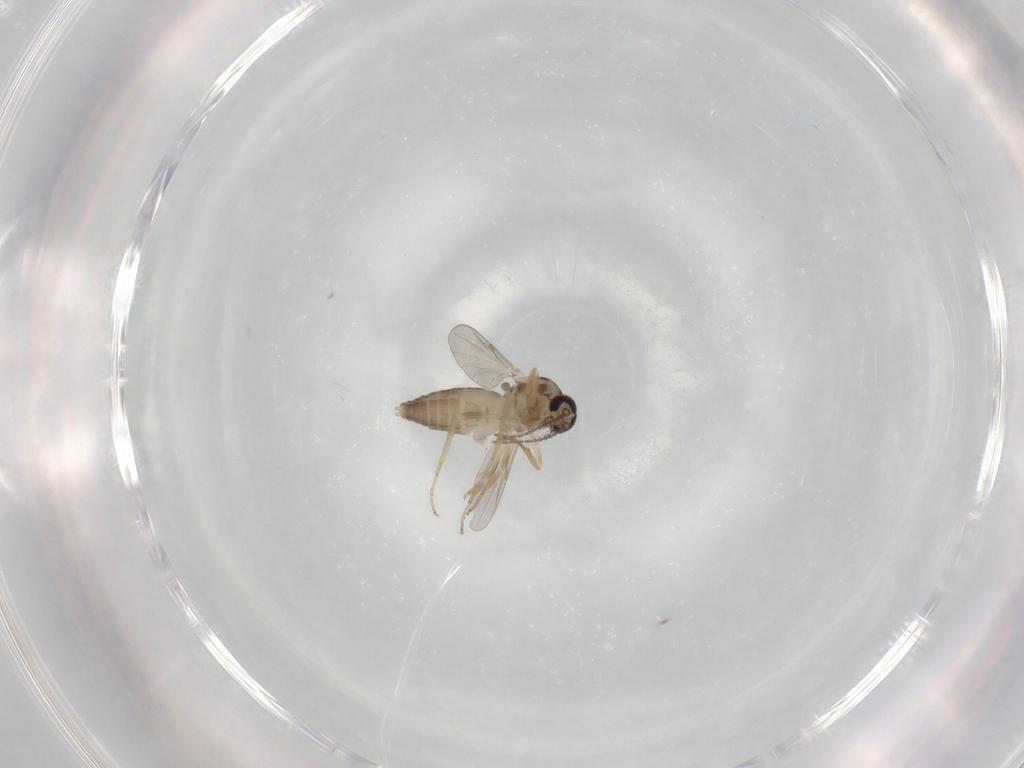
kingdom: Animalia
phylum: Arthropoda
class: Insecta
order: Diptera
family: Ceratopogonidae
